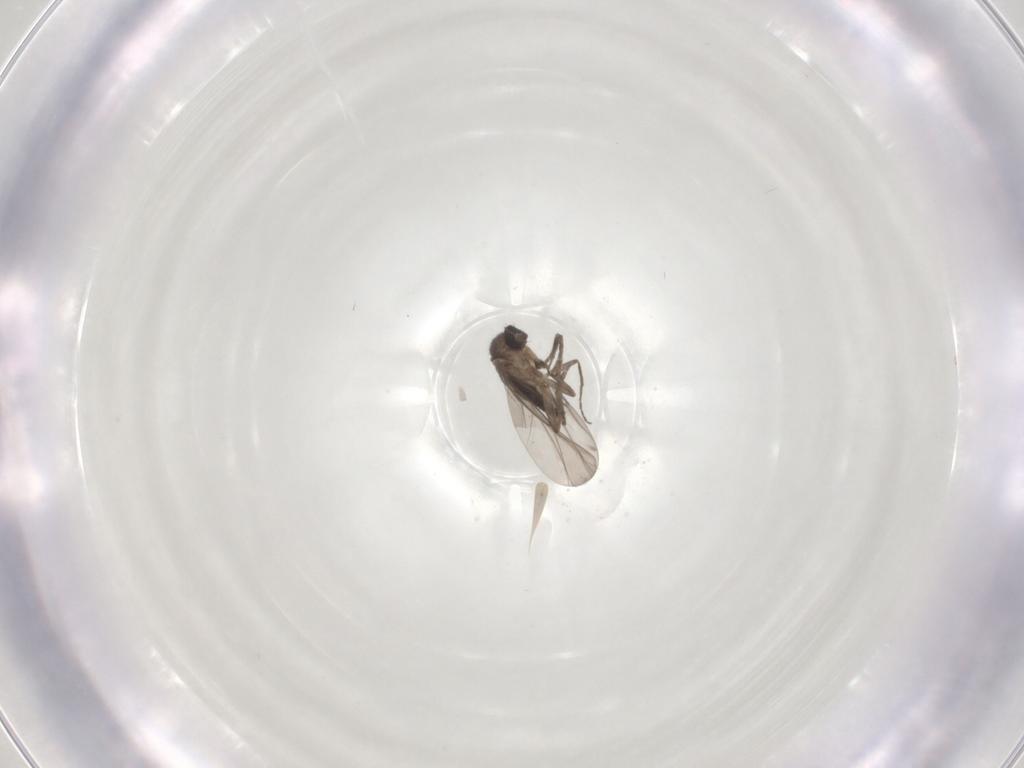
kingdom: Animalia
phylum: Arthropoda
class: Insecta
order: Diptera
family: Phoridae
